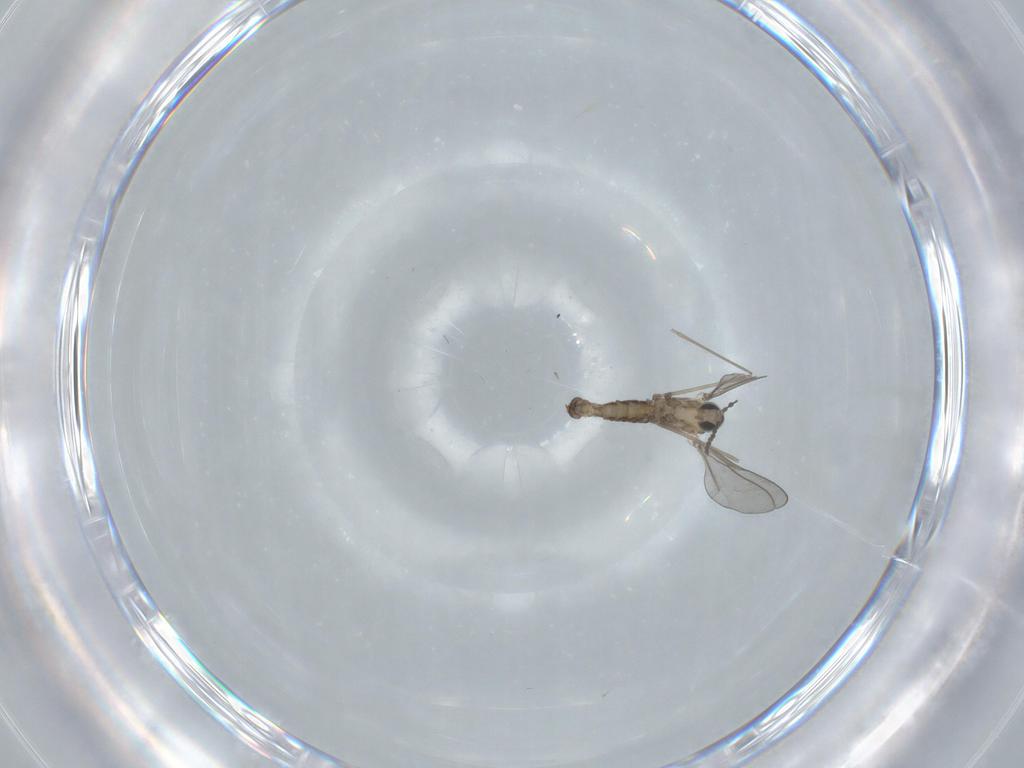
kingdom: Animalia
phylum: Arthropoda
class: Insecta
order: Diptera
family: Cecidomyiidae
